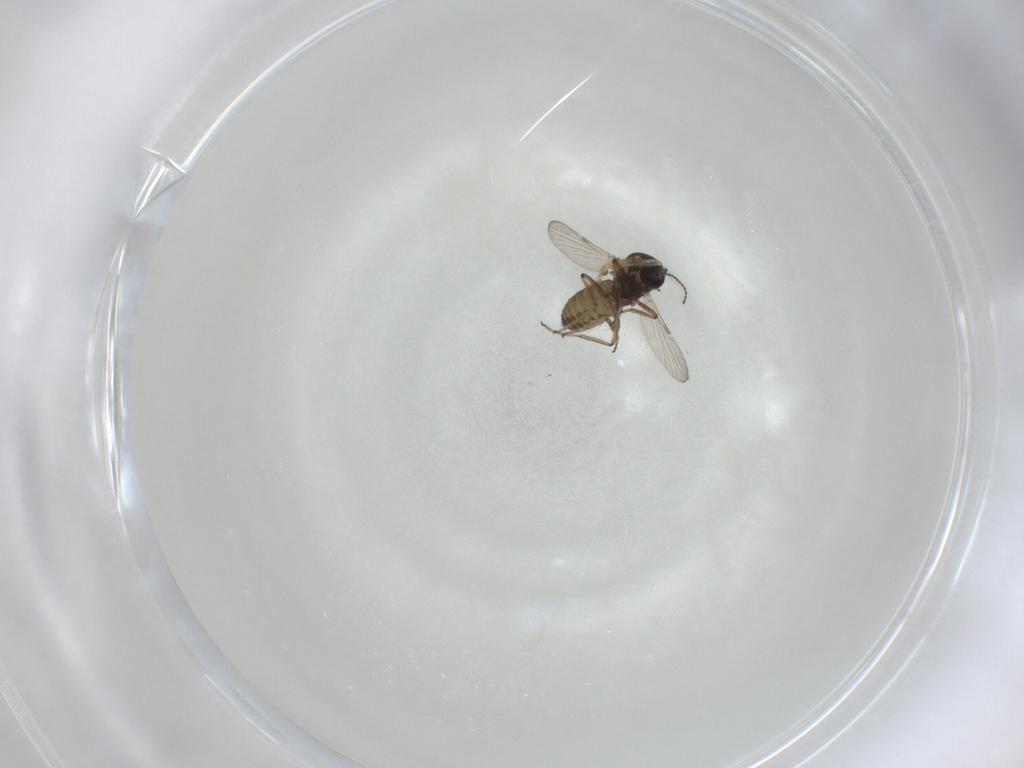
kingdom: Animalia
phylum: Arthropoda
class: Insecta
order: Diptera
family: Ceratopogonidae
